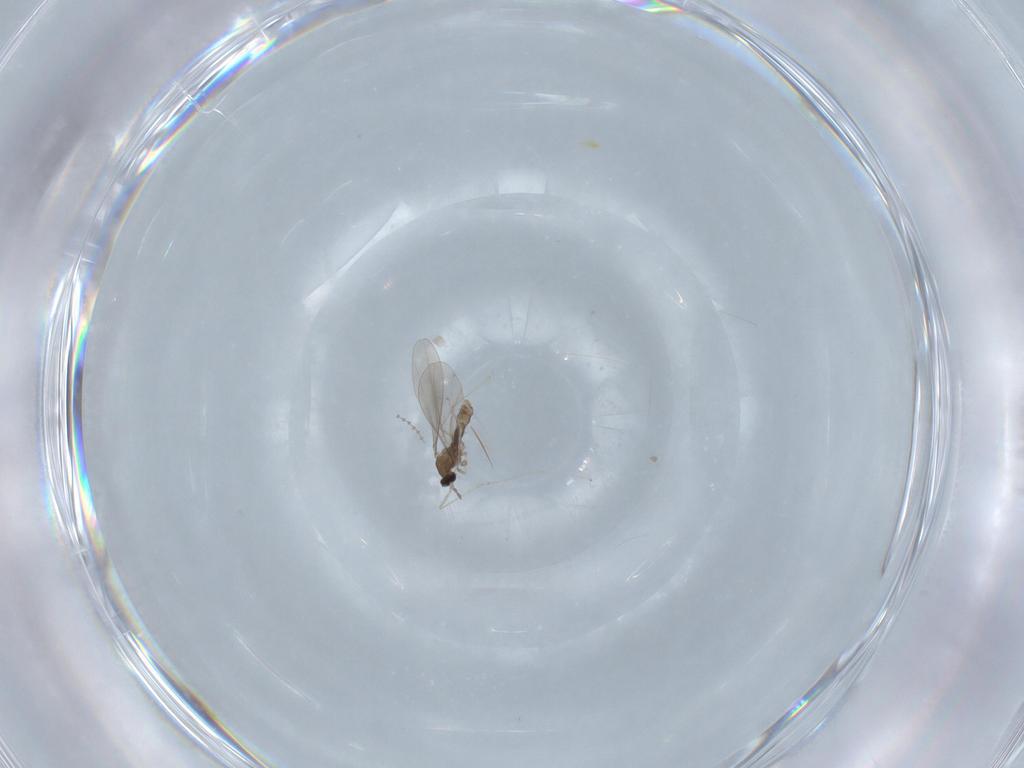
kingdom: Animalia
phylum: Arthropoda
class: Insecta
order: Diptera
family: Cecidomyiidae
